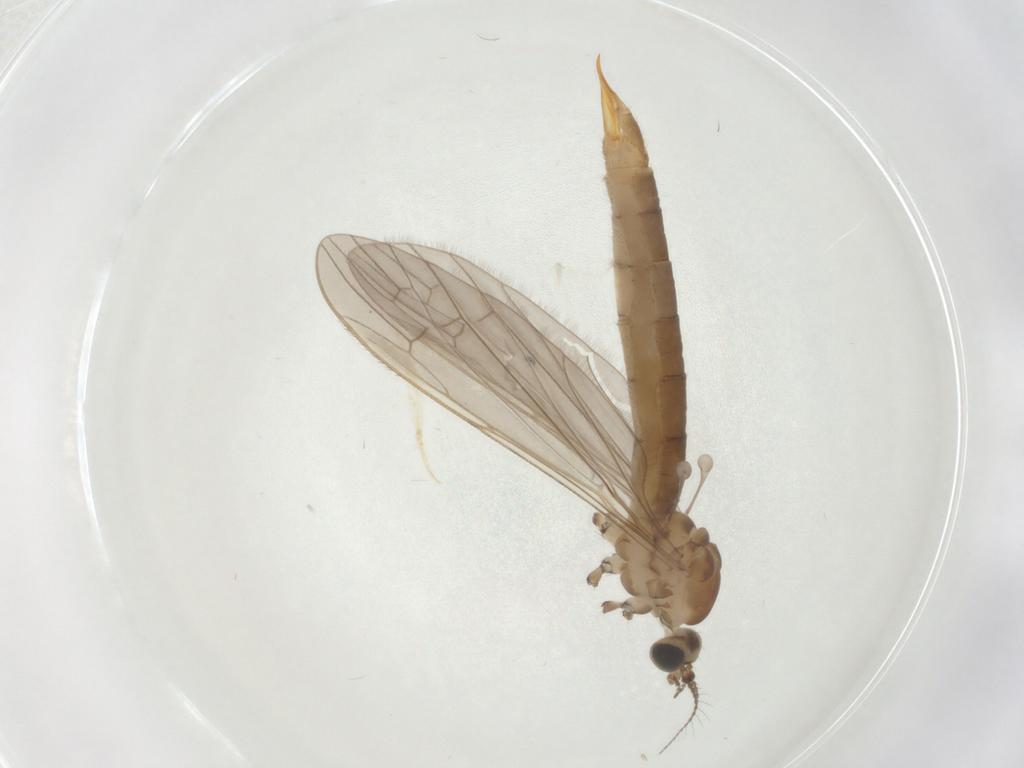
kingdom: Animalia
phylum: Arthropoda
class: Insecta
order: Diptera
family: Limoniidae
